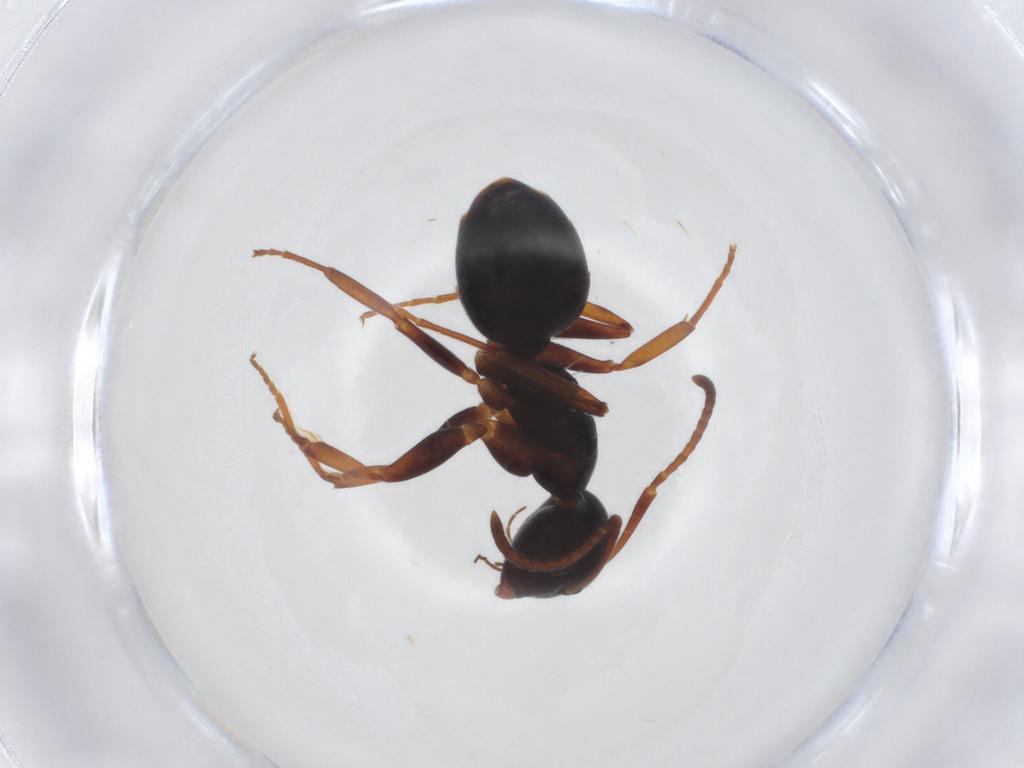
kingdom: Animalia
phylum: Arthropoda
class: Insecta
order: Hymenoptera
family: Formicidae
